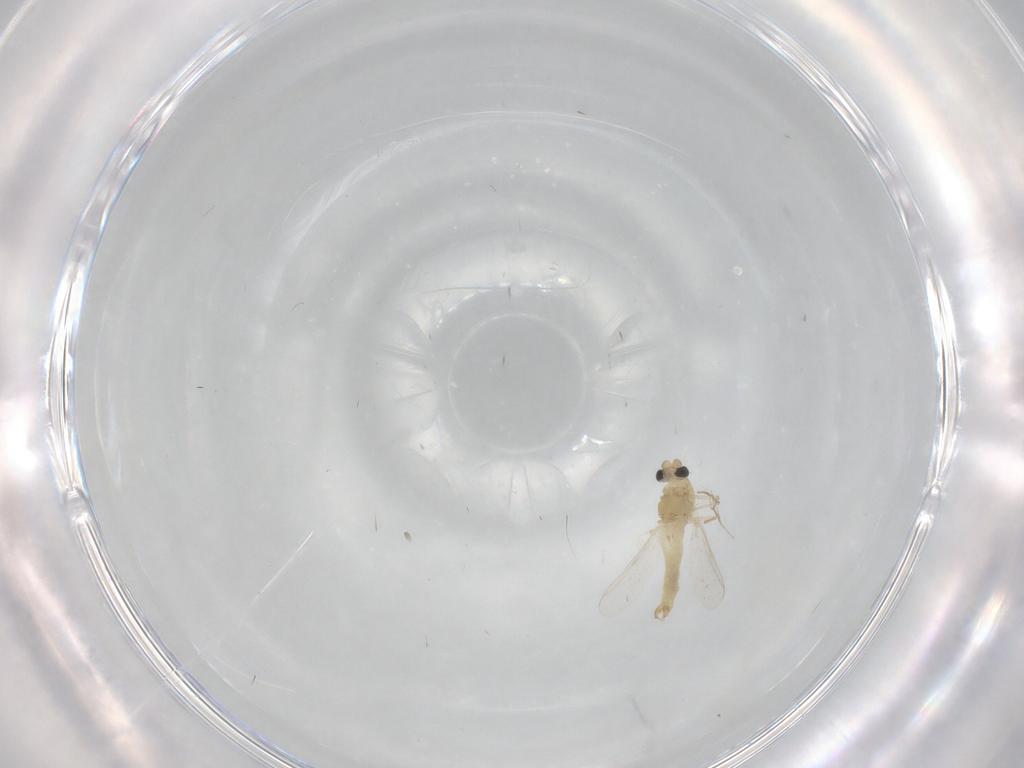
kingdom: Animalia
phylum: Arthropoda
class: Insecta
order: Diptera
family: Chironomidae
